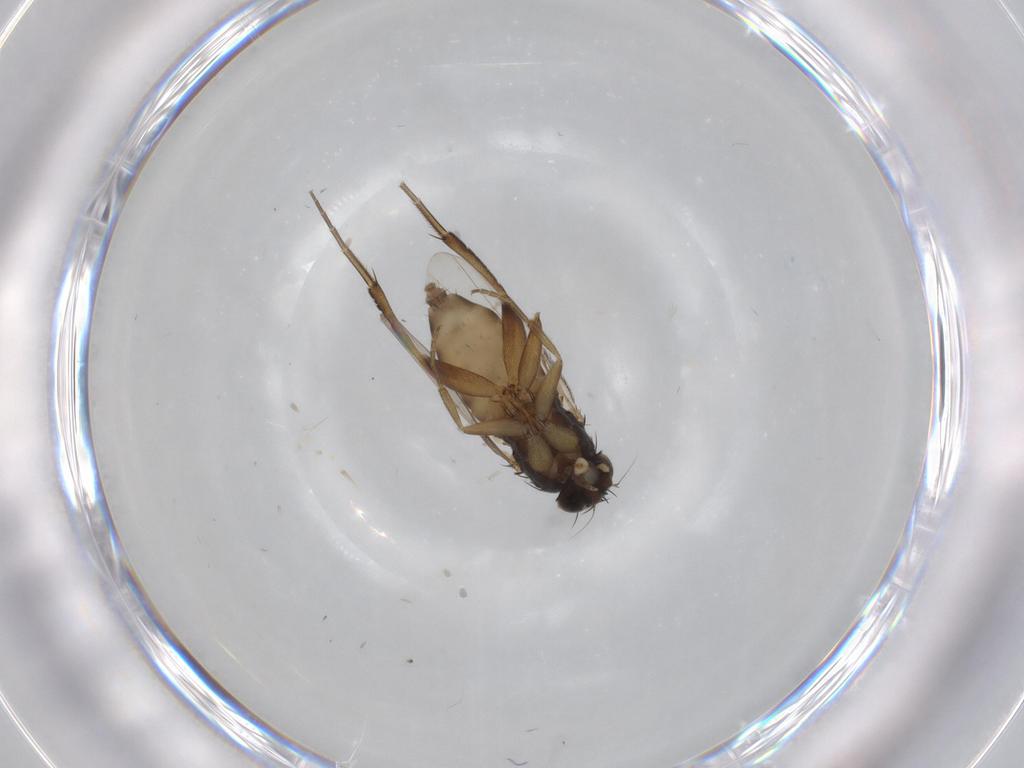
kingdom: Animalia
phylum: Arthropoda
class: Insecta
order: Diptera
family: Phoridae
